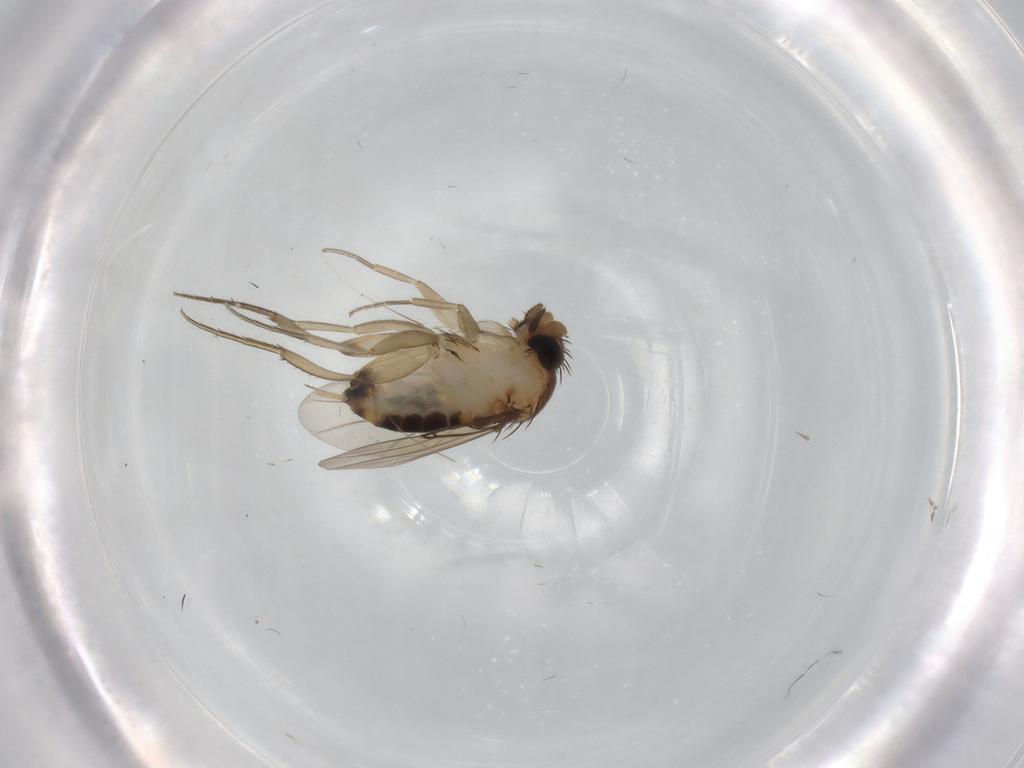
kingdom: Animalia
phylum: Arthropoda
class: Insecta
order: Diptera
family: Phoridae
